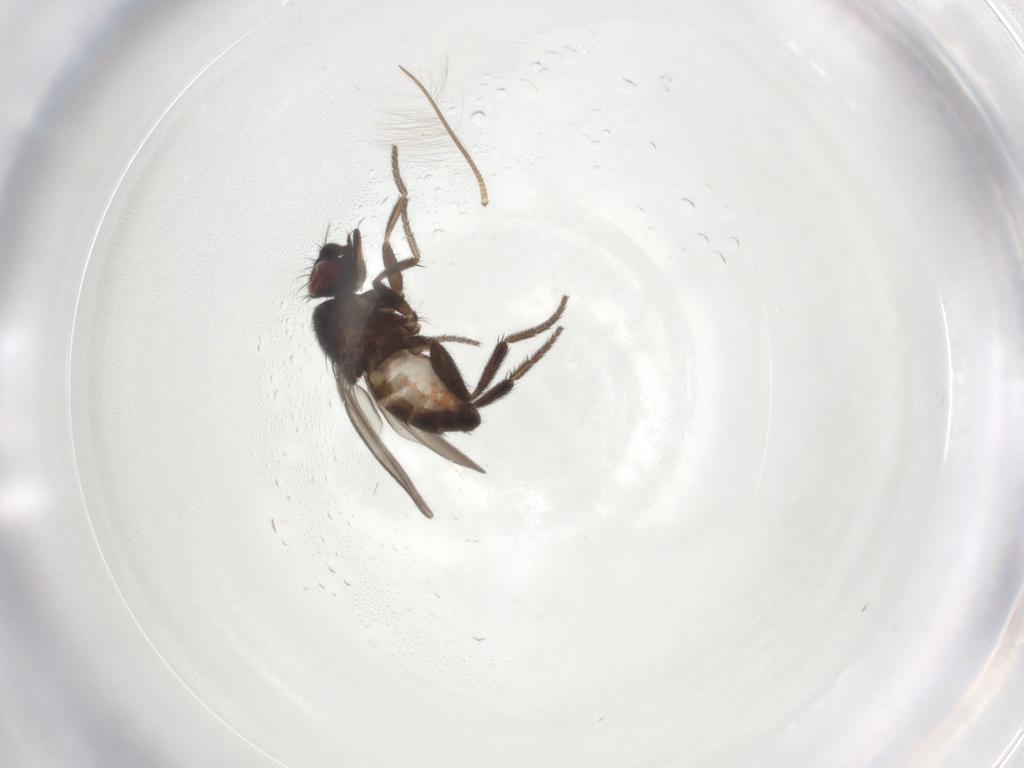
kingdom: Animalia
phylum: Arthropoda
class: Insecta
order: Diptera
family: Milichiidae
